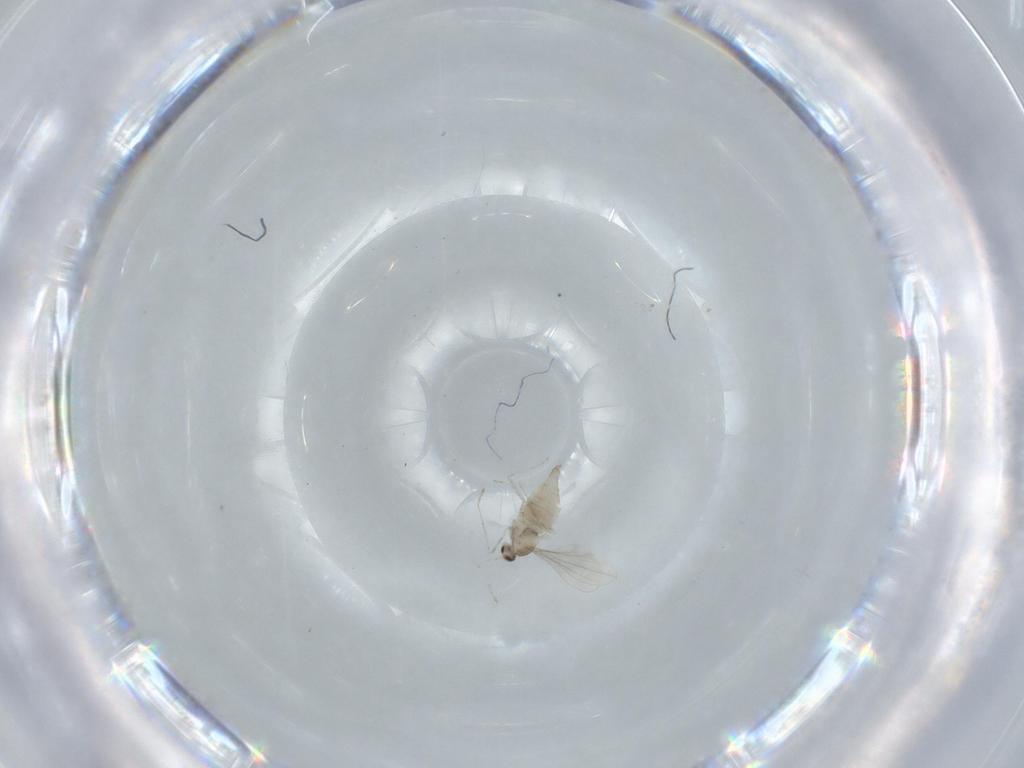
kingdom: Animalia
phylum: Arthropoda
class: Insecta
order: Diptera
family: Cecidomyiidae
